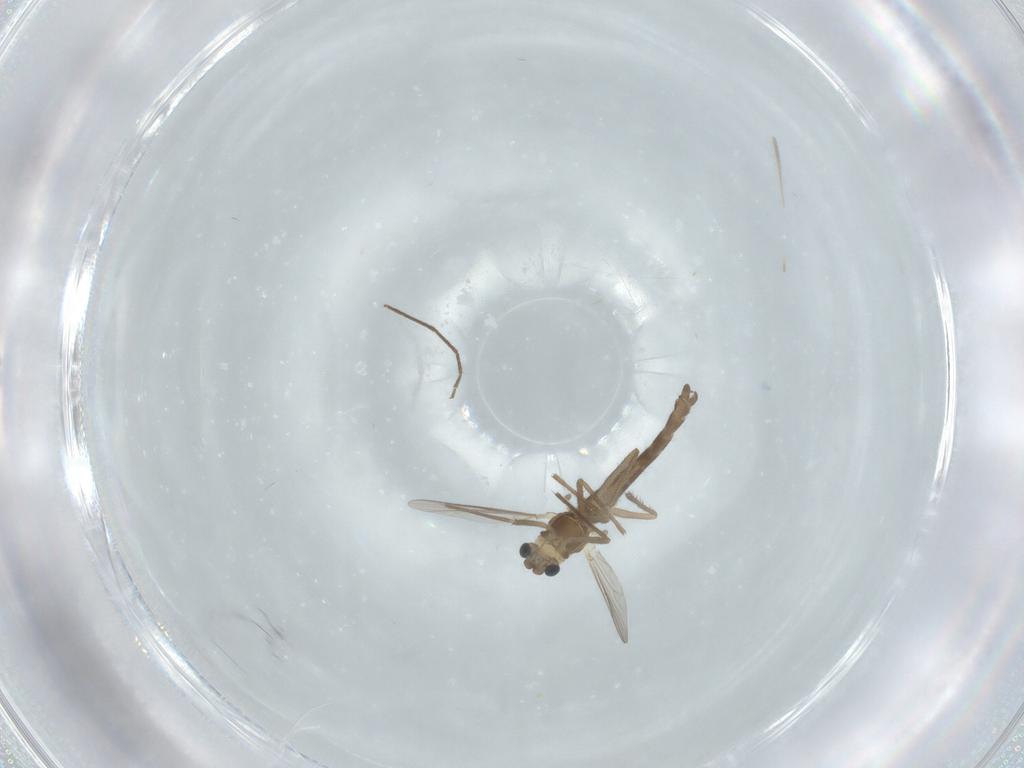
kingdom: Animalia
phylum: Arthropoda
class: Insecta
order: Diptera
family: Chironomidae
